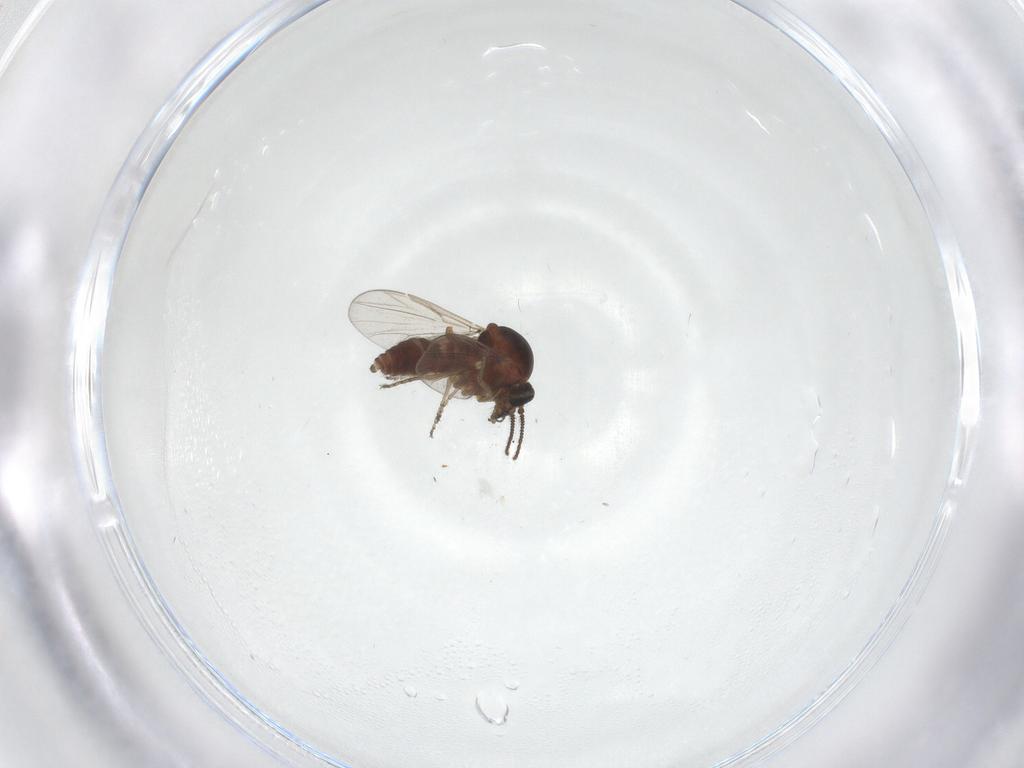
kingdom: Animalia
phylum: Arthropoda
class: Insecta
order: Diptera
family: Ceratopogonidae
